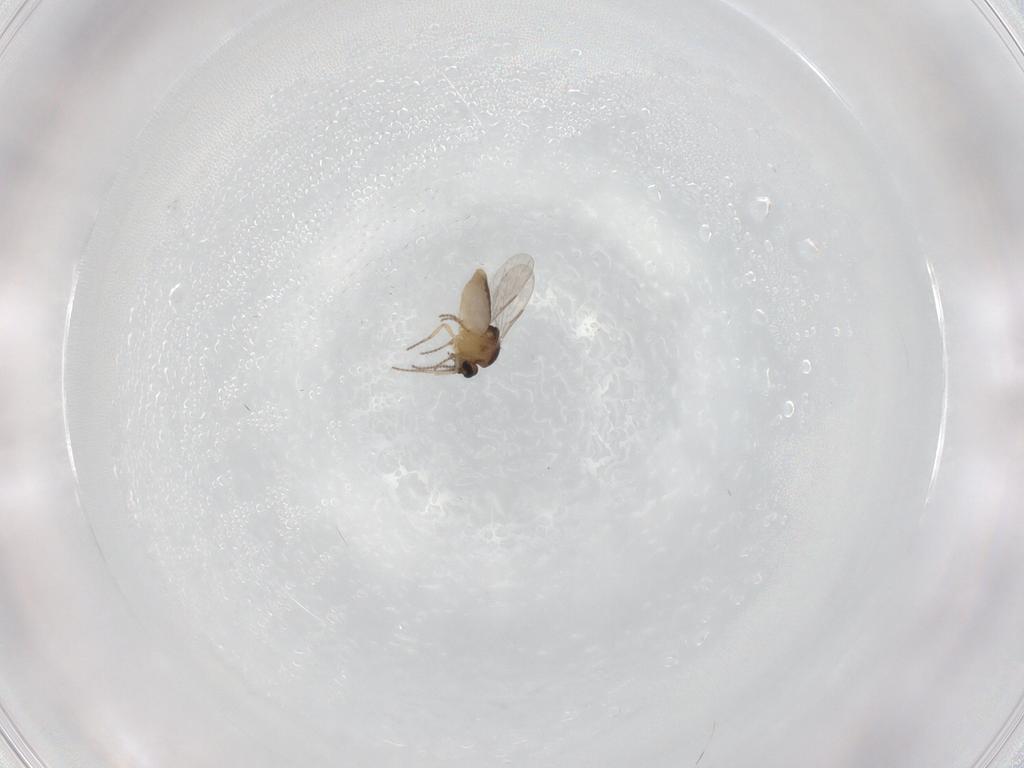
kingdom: Animalia
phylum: Arthropoda
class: Insecta
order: Diptera
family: Ceratopogonidae
